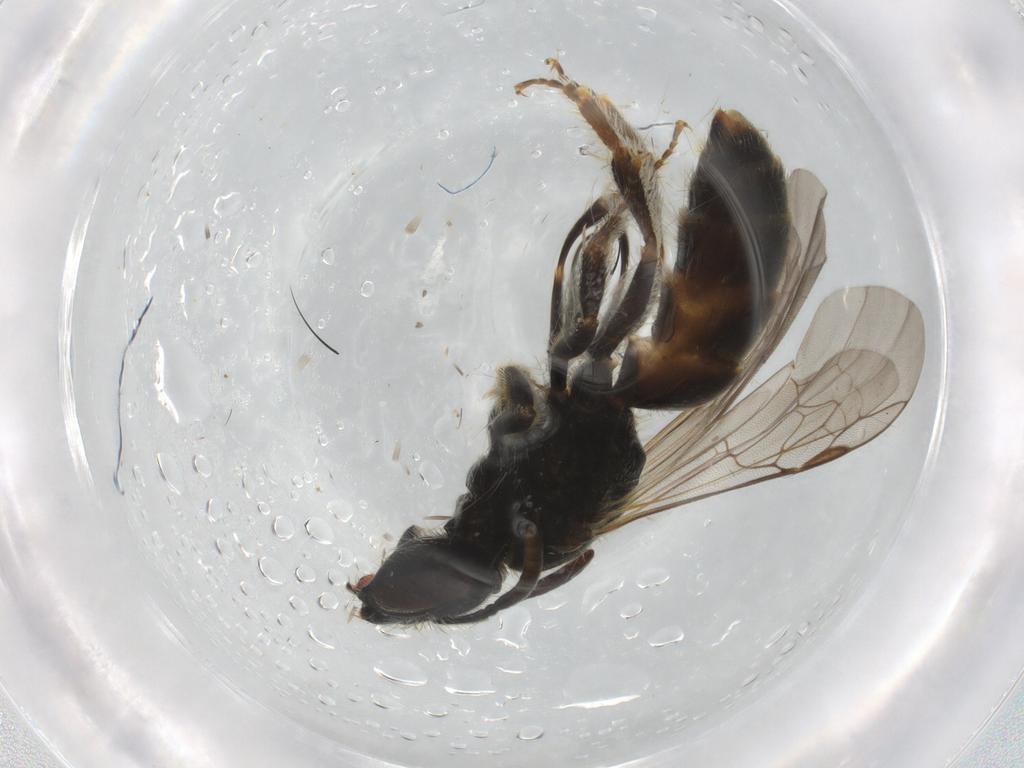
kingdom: Animalia
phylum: Arthropoda
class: Insecta
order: Hymenoptera
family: Halictidae
